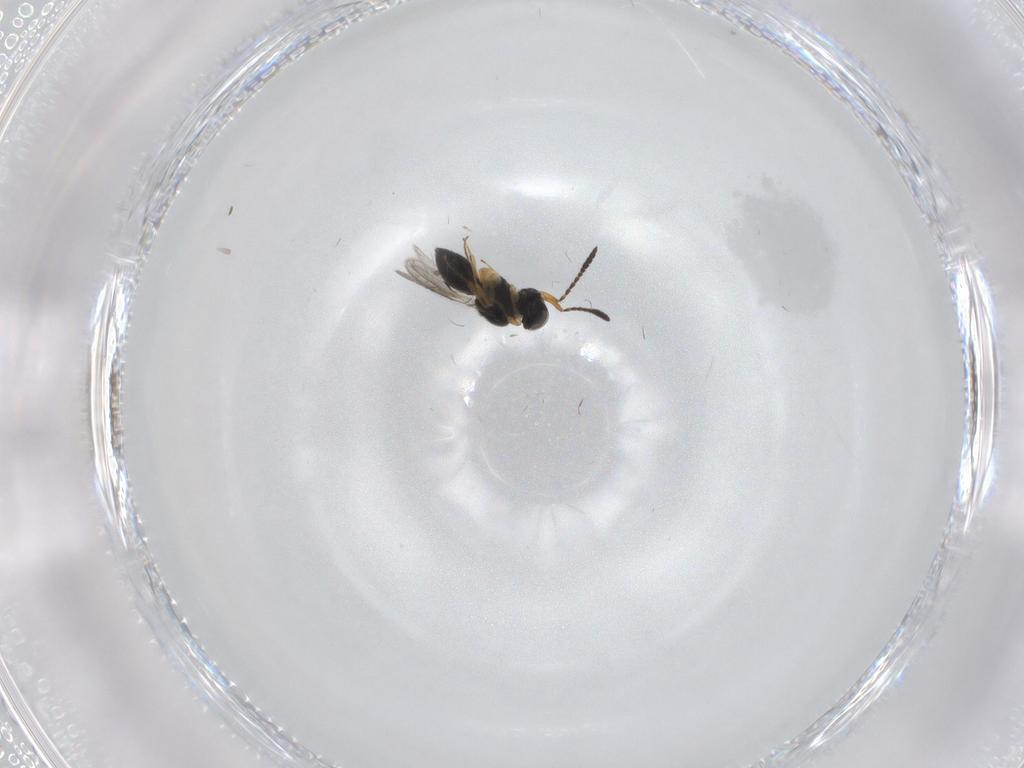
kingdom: Animalia
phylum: Arthropoda
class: Insecta
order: Hymenoptera
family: Scelionidae
